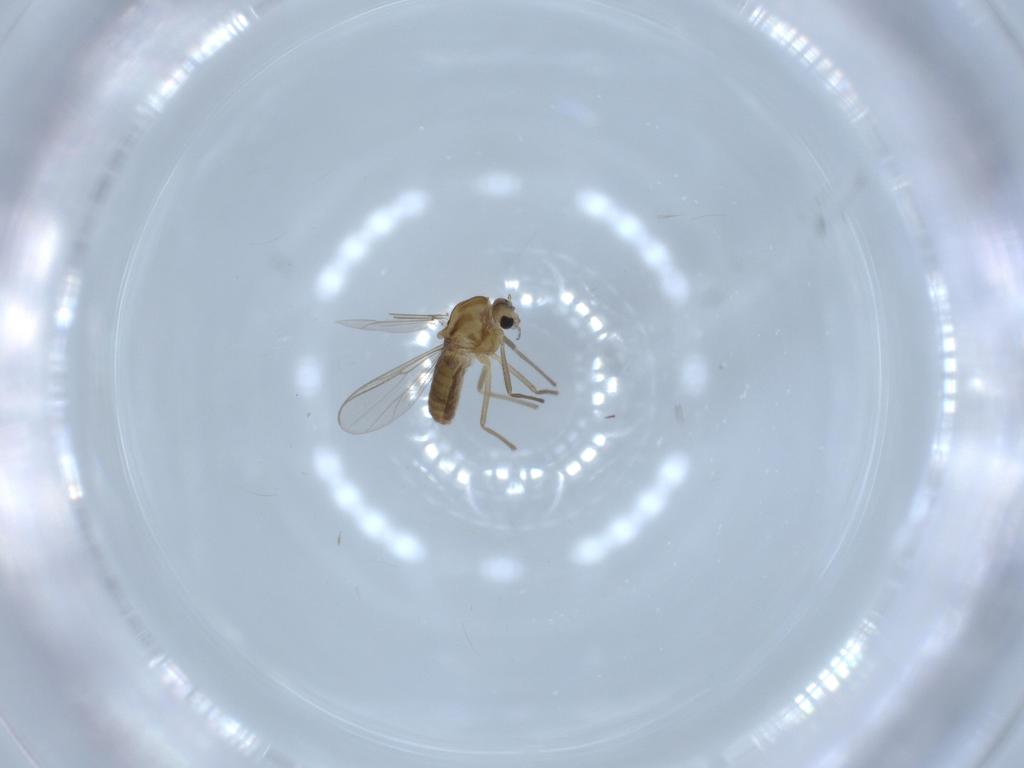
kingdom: Animalia
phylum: Arthropoda
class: Insecta
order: Diptera
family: Chironomidae
